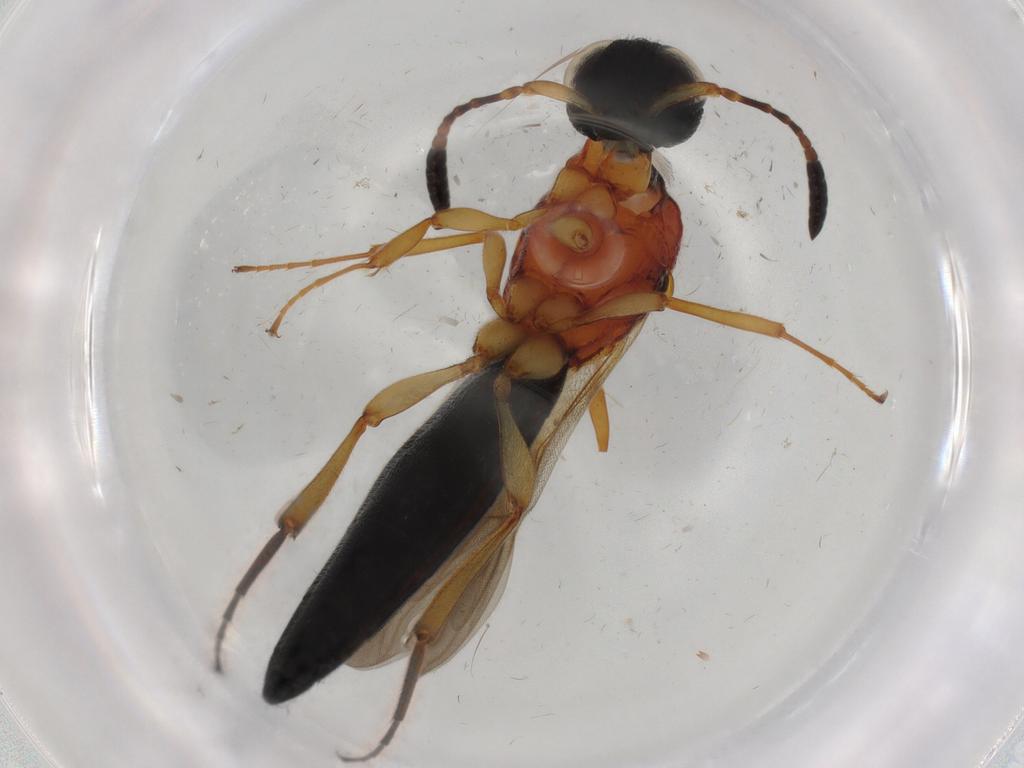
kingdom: Animalia
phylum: Arthropoda
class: Insecta
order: Hymenoptera
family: Scelionidae
